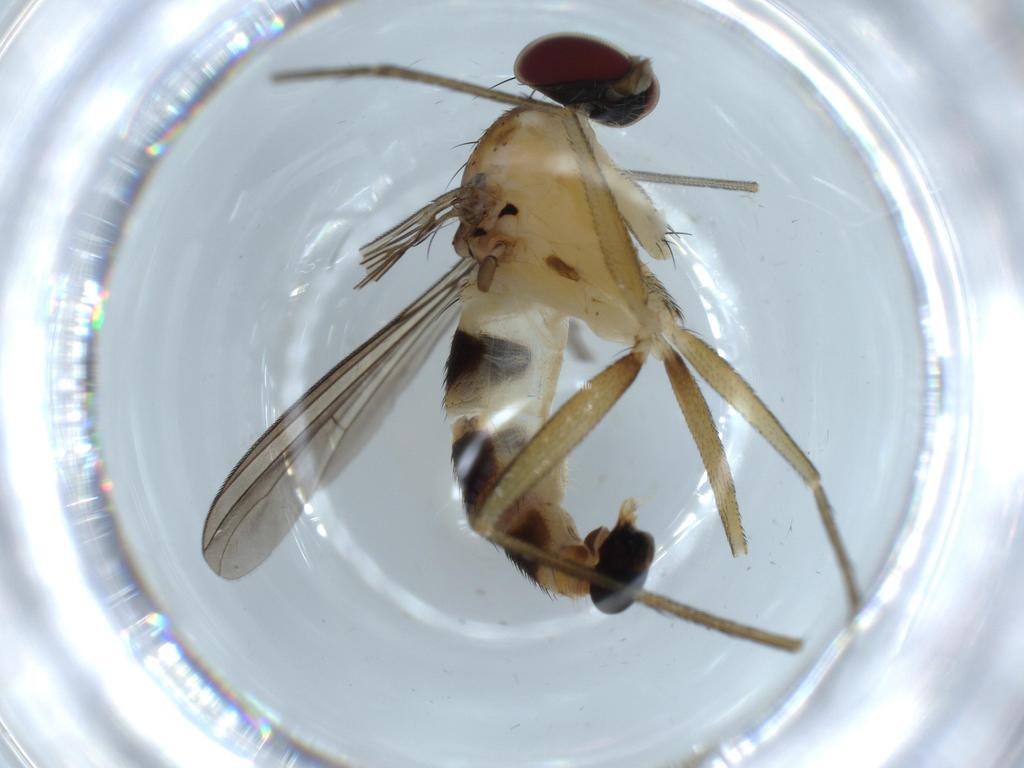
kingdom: Animalia
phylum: Arthropoda
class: Insecta
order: Diptera
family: Dolichopodidae
